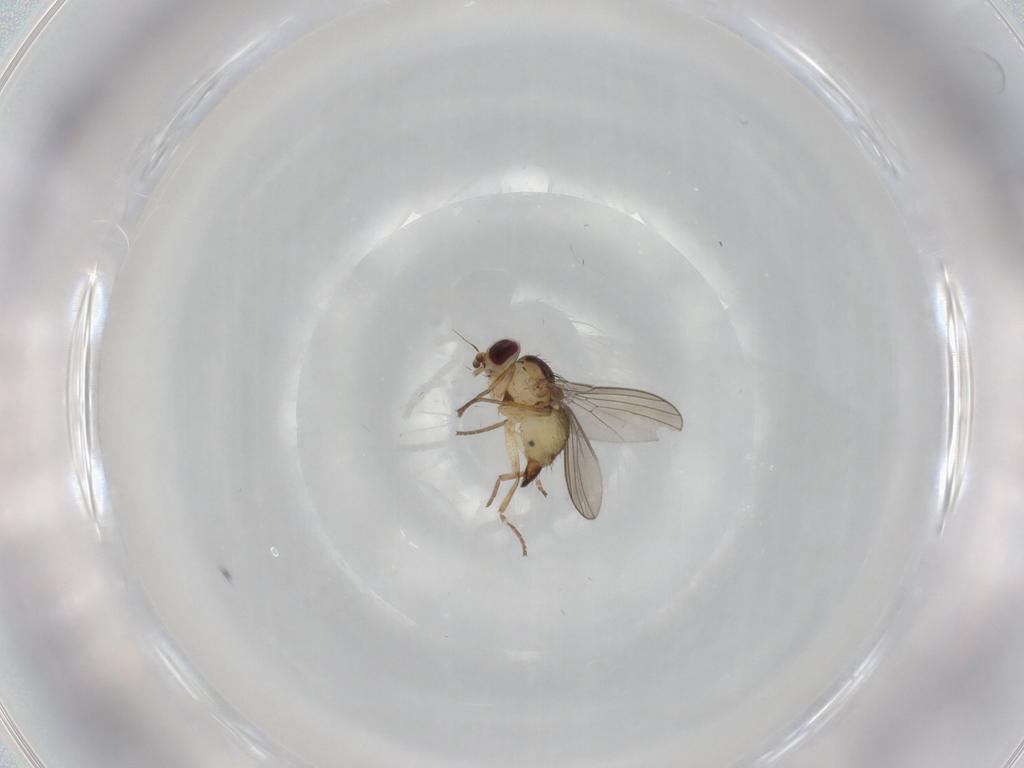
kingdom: Animalia
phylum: Arthropoda
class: Insecta
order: Diptera
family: Agromyzidae
